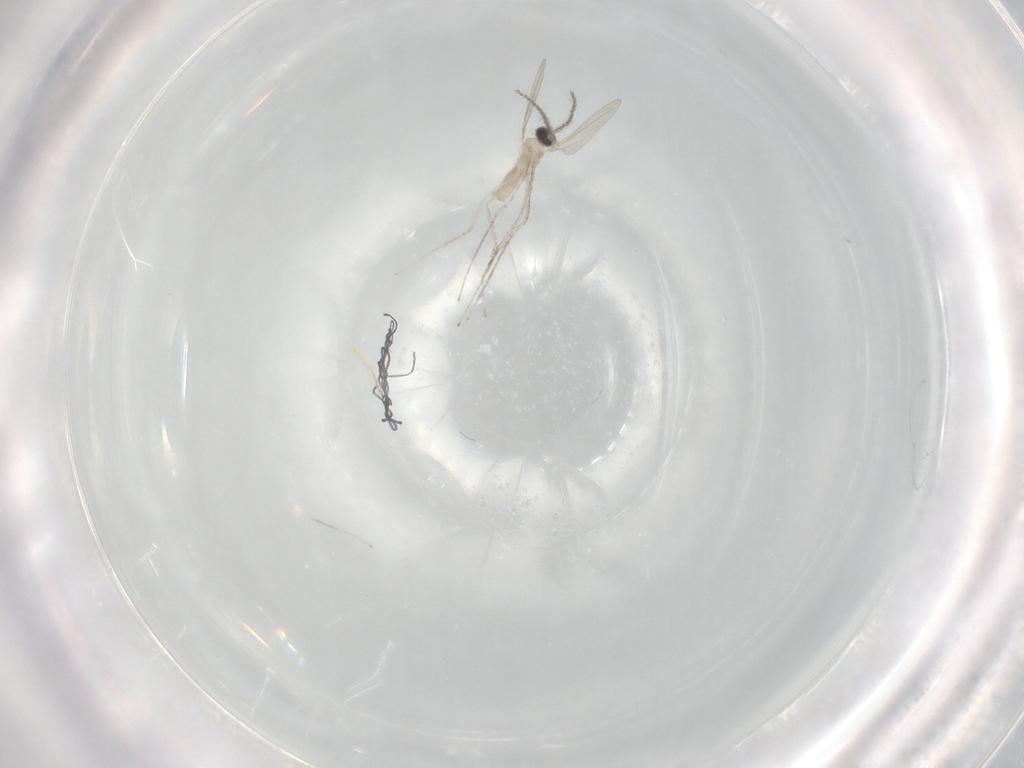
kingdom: Animalia
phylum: Arthropoda
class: Insecta
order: Diptera
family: Cecidomyiidae
